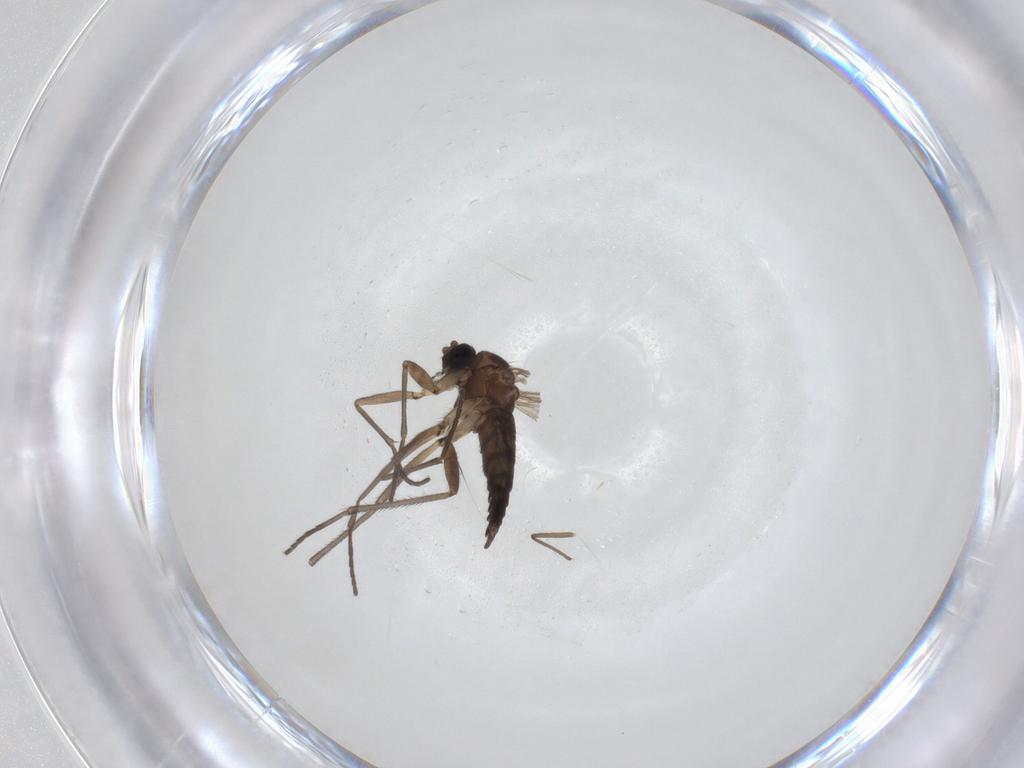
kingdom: Animalia
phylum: Arthropoda
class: Insecta
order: Diptera
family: Sciaridae
